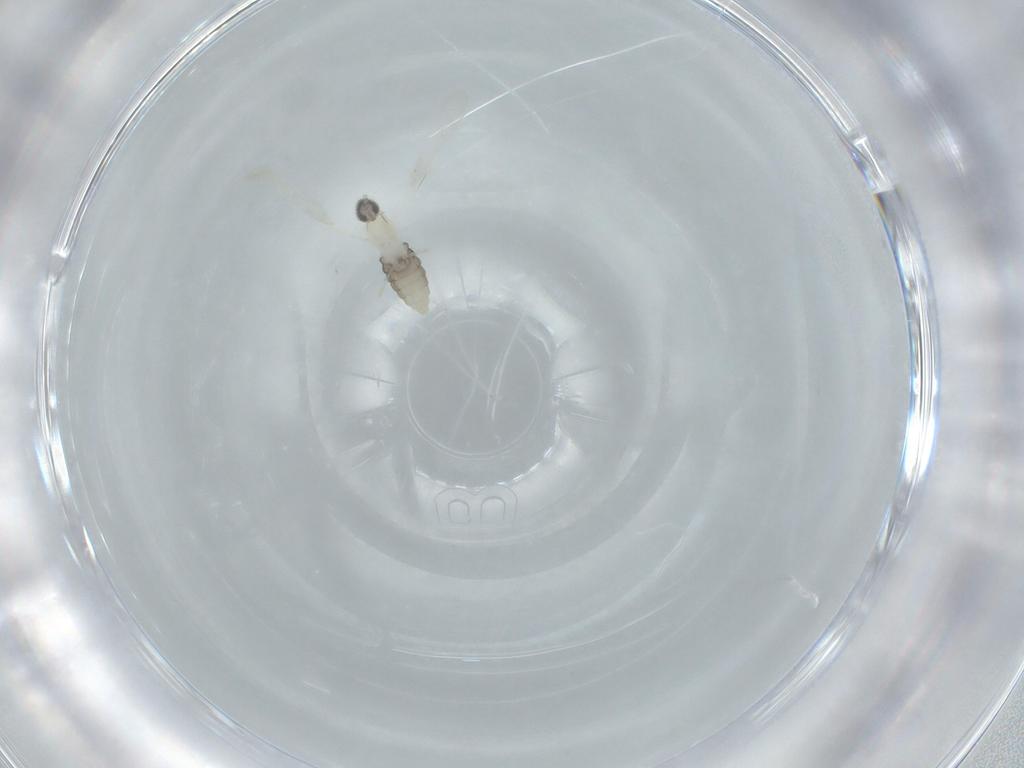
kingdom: Animalia
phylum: Arthropoda
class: Insecta
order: Diptera
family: Cecidomyiidae
